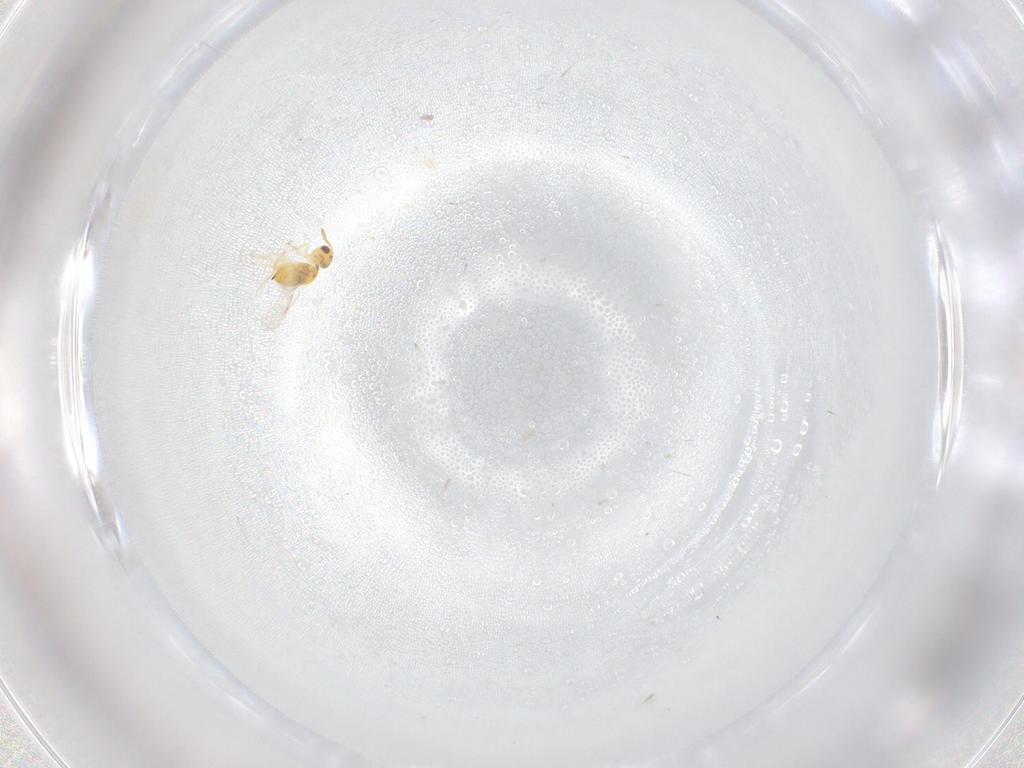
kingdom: Animalia
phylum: Arthropoda
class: Insecta
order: Hymenoptera
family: Aphelinidae
